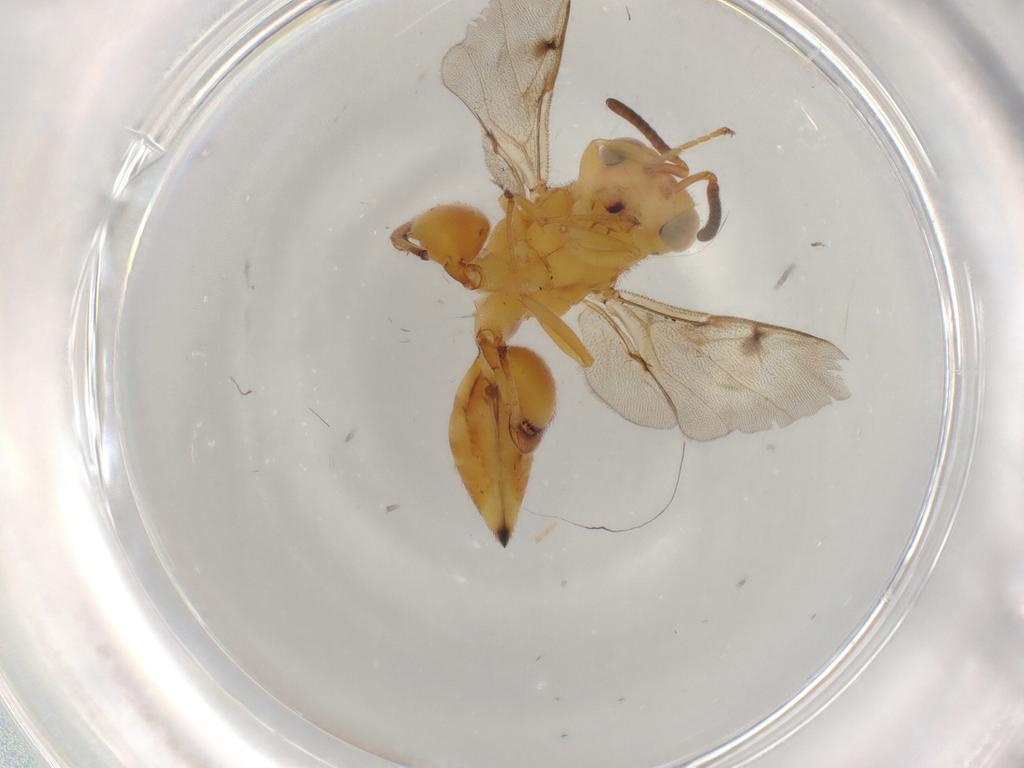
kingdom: Animalia
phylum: Arthropoda
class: Insecta
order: Hymenoptera
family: Chalcididae
